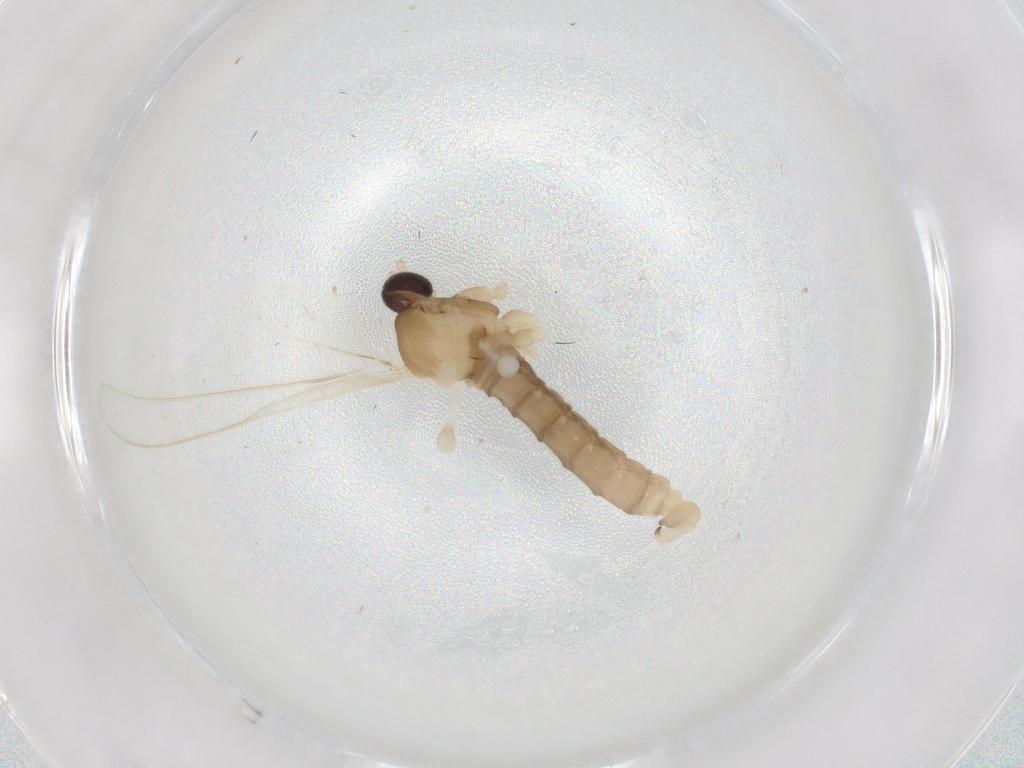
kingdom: Animalia
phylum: Arthropoda
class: Insecta
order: Diptera
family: Cecidomyiidae
